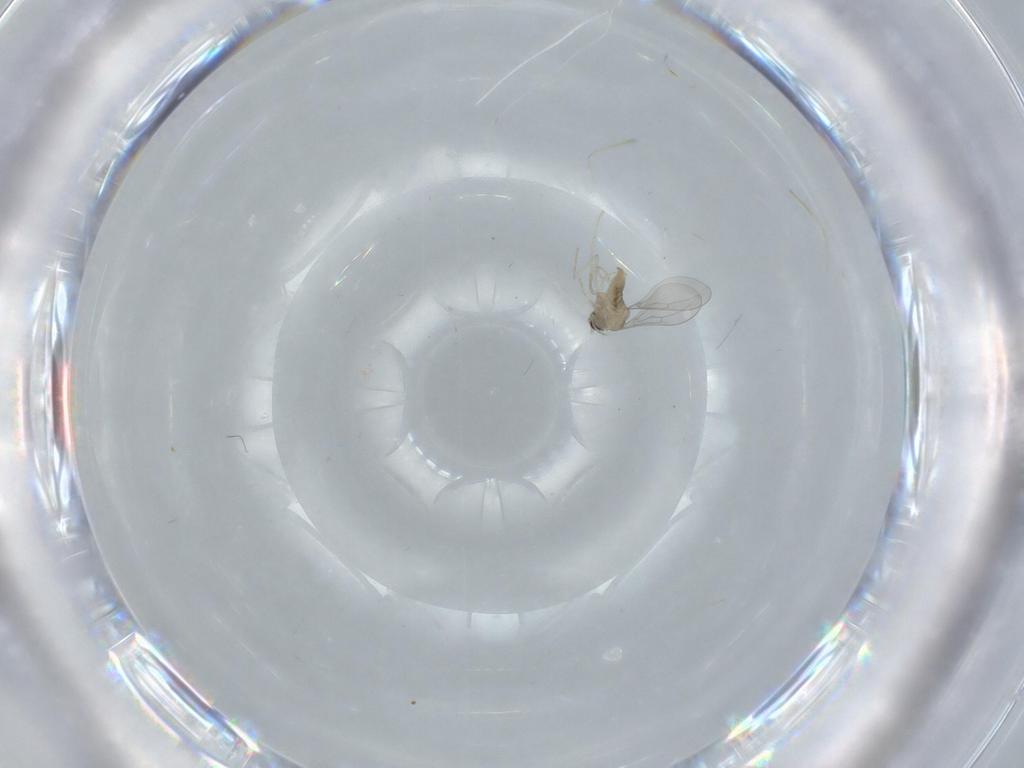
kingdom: Animalia
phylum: Arthropoda
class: Insecta
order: Diptera
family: Cecidomyiidae
